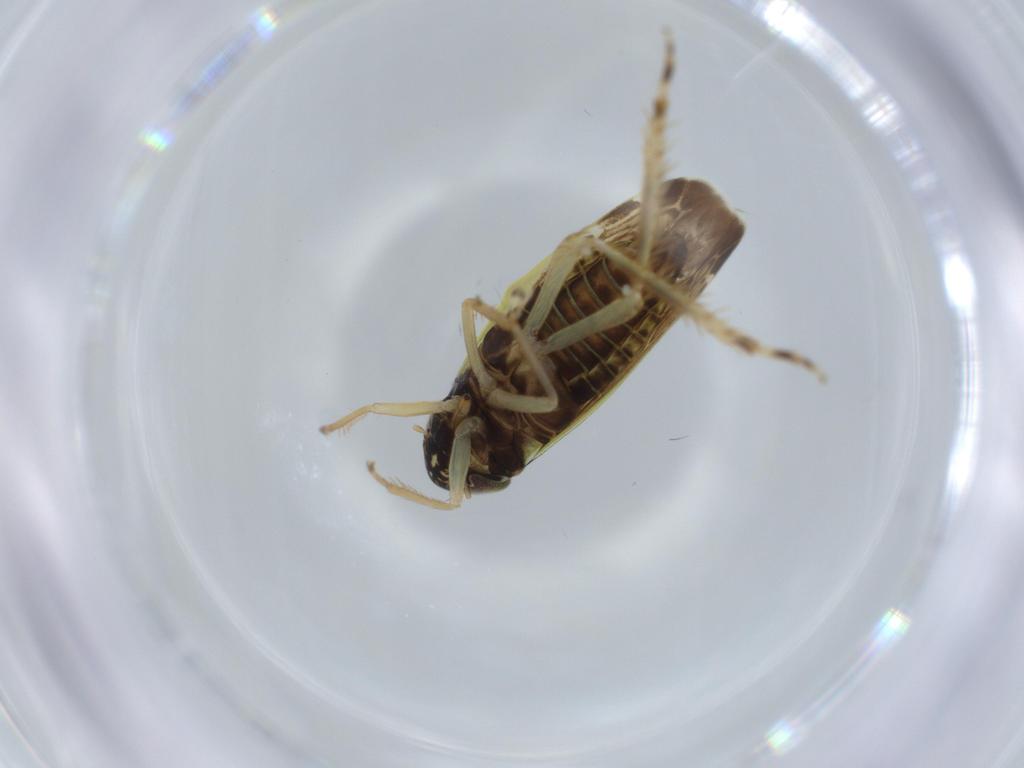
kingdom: Animalia
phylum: Arthropoda
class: Insecta
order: Hemiptera
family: Cicadellidae
